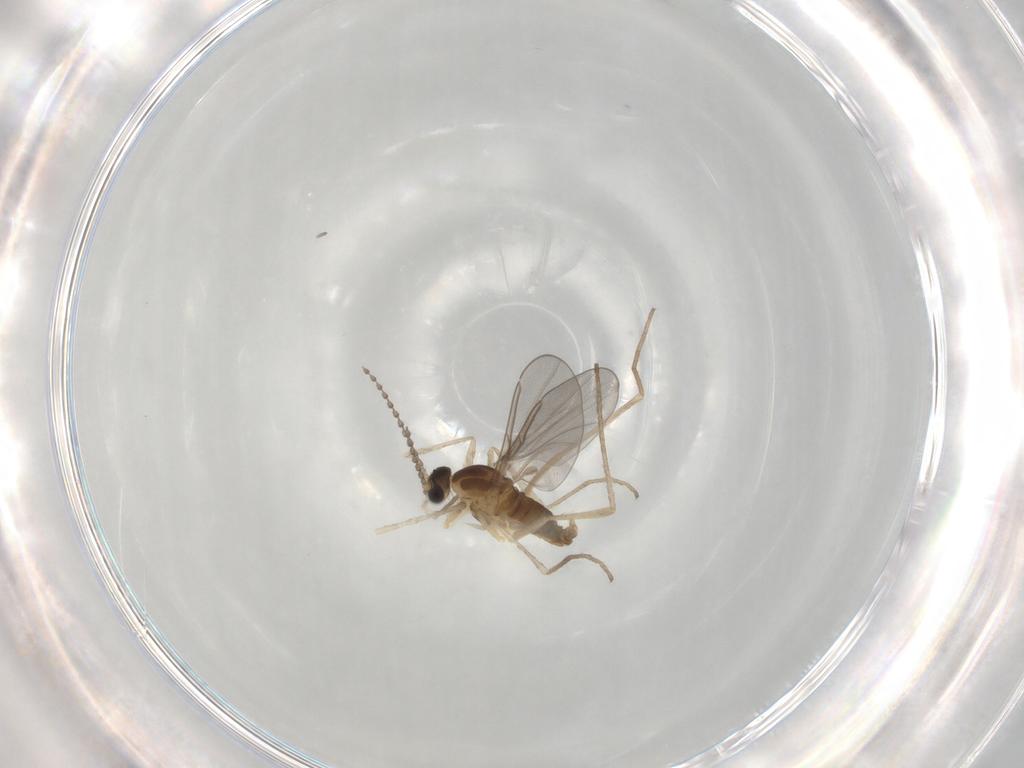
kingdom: Animalia
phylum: Arthropoda
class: Insecta
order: Diptera
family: Cecidomyiidae
